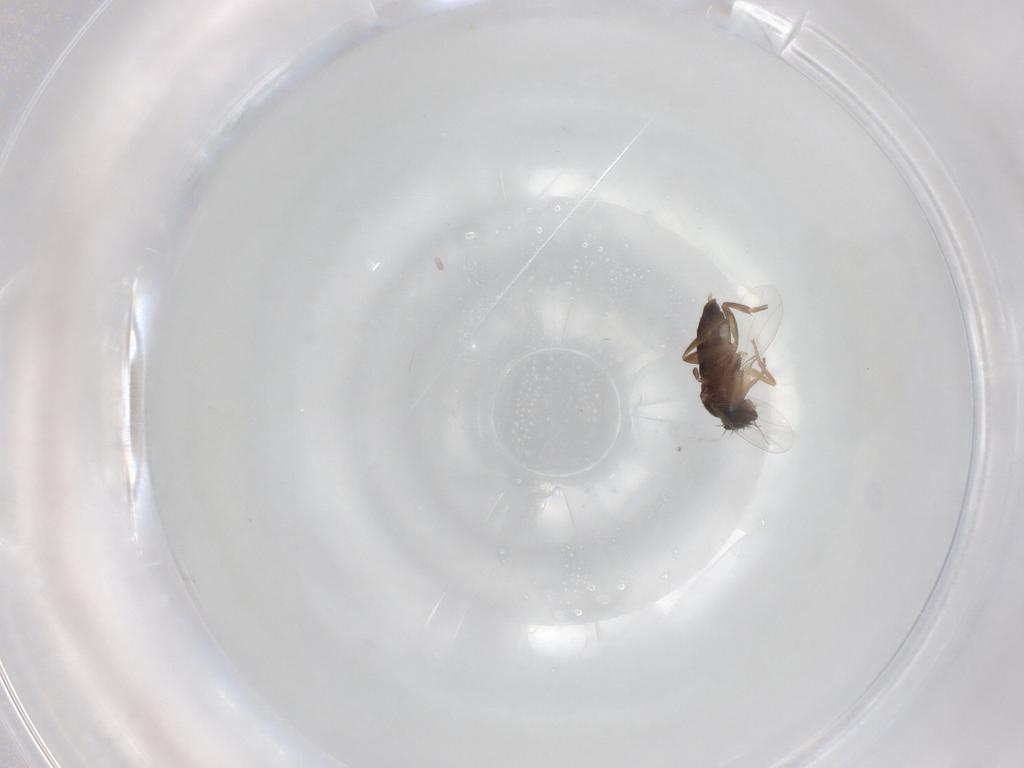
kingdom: Animalia
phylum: Arthropoda
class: Insecta
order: Diptera
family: Phoridae
